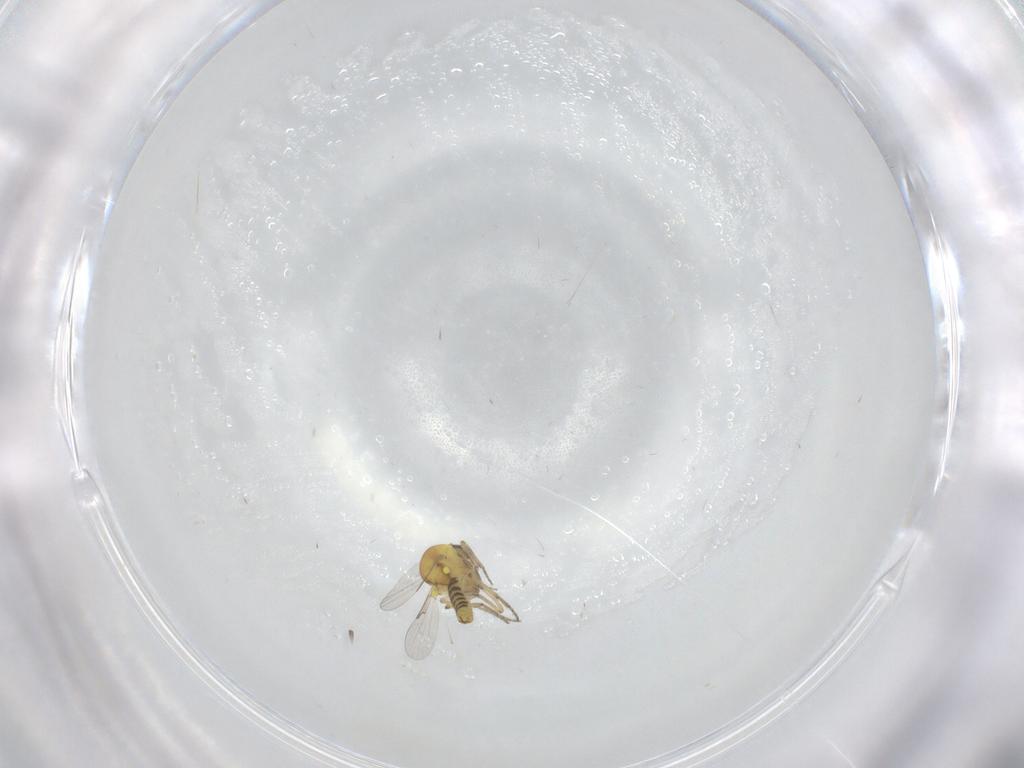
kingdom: Animalia
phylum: Arthropoda
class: Insecta
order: Diptera
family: Ceratopogonidae
